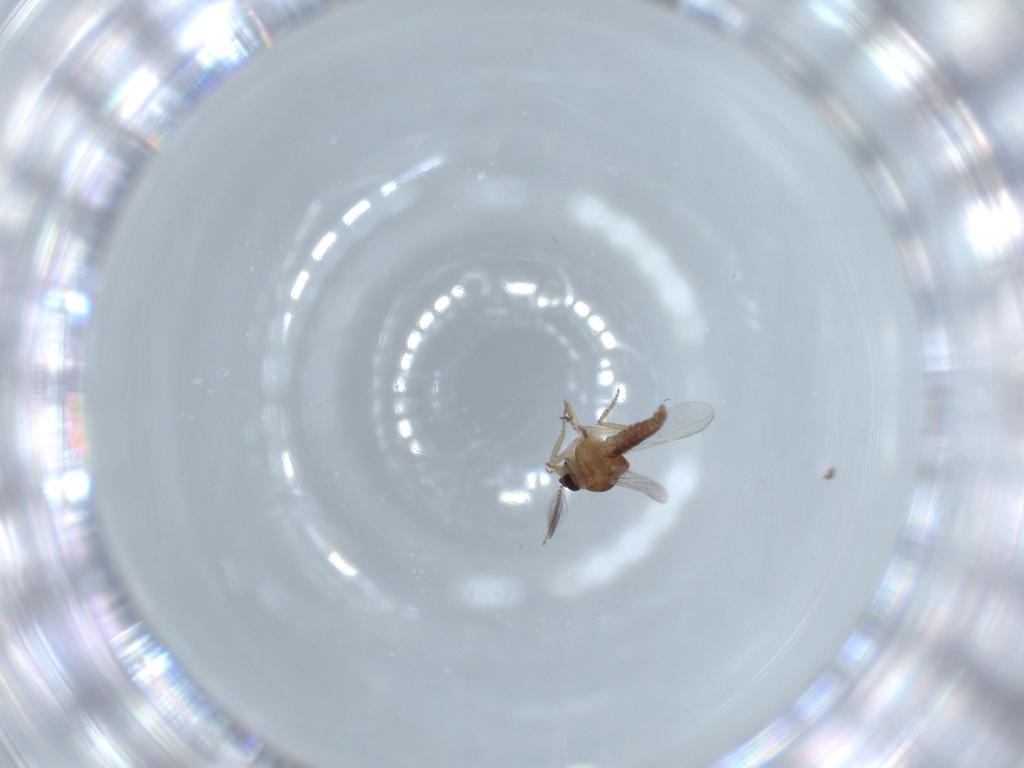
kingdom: Animalia
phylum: Arthropoda
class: Insecta
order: Diptera
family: Ceratopogonidae
